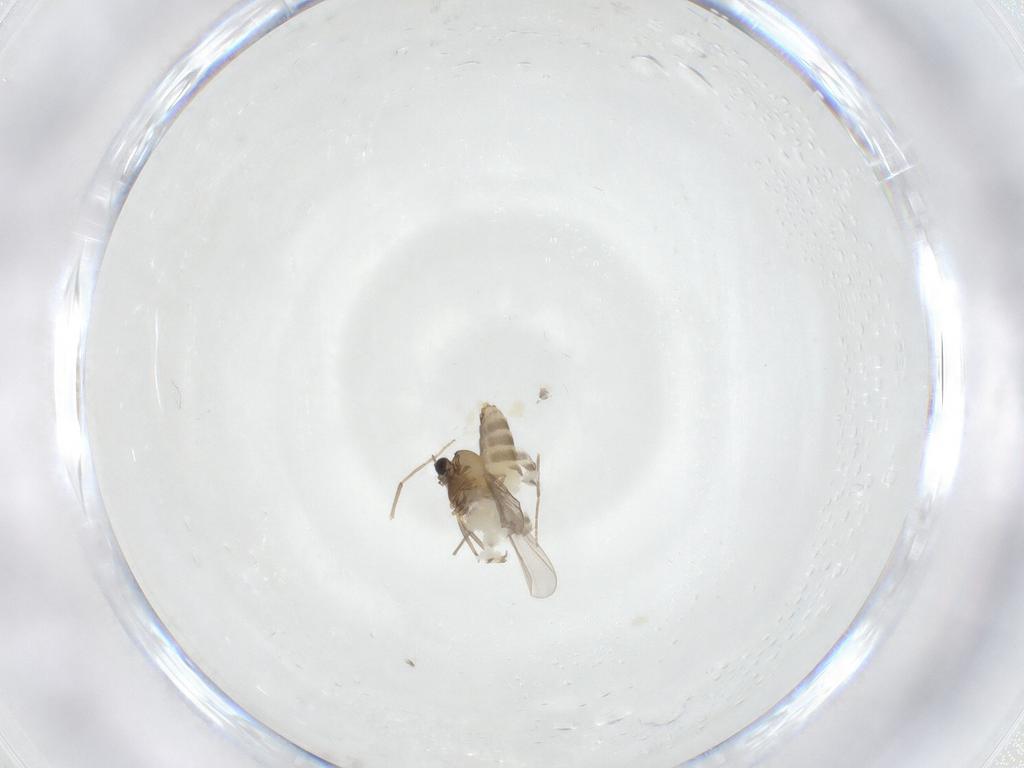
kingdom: Animalia
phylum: Arthropoda
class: Insecta
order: Diptera
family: Chironomidae
